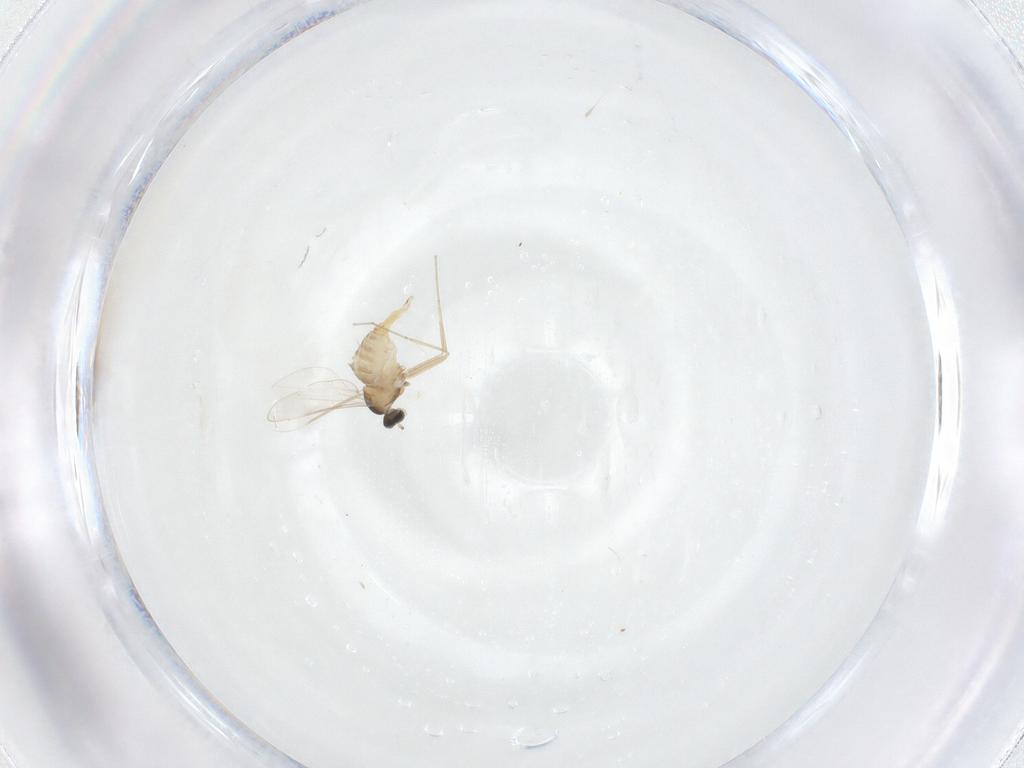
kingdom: Animalia
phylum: Arthropoda
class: Insecta
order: Diptera
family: Cecidomyiidae
